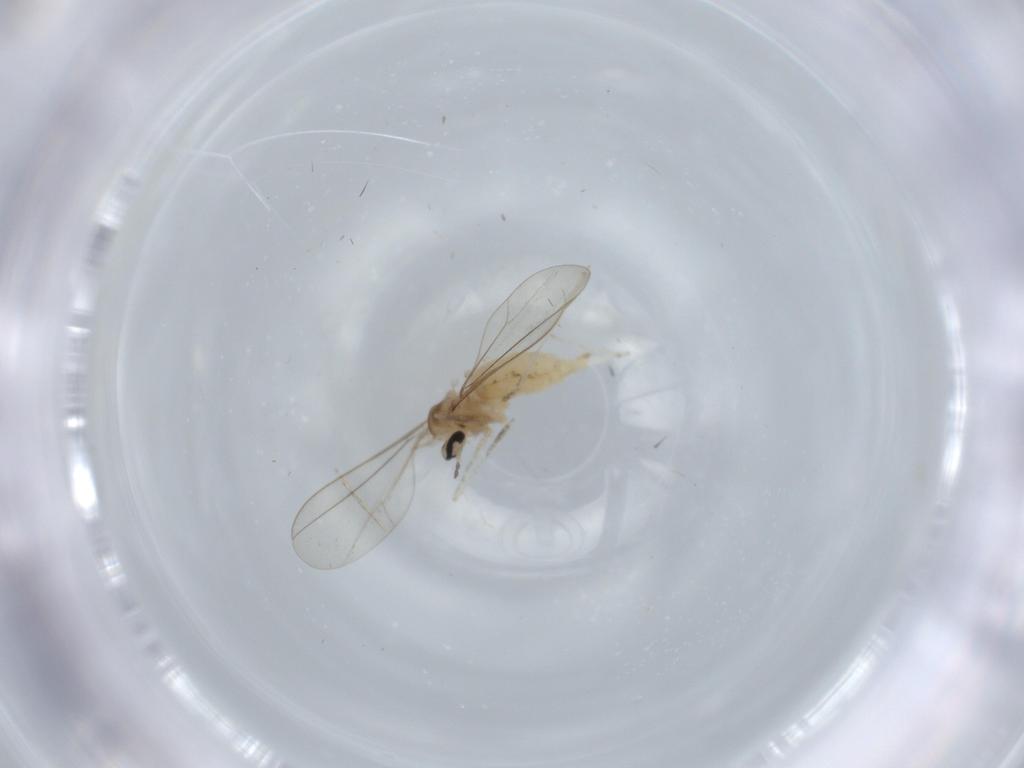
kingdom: Animalia
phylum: Arthropoda
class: Insecta
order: Diptera
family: Cecidomyiidae
